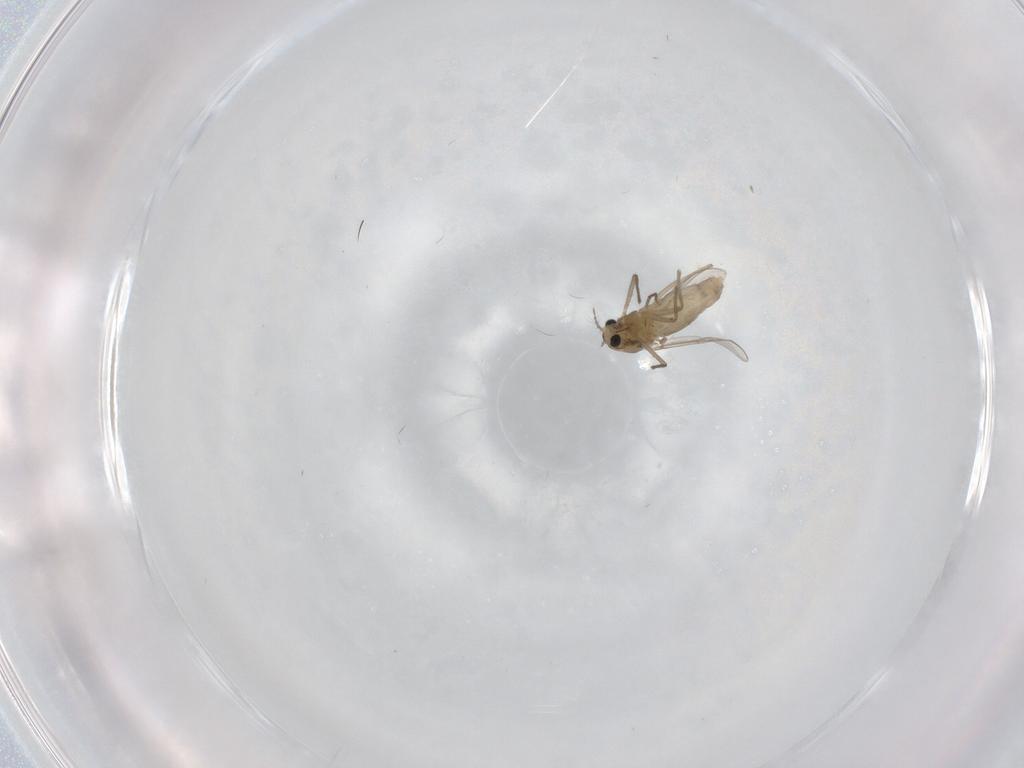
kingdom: Animalia
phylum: Arthropoda
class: Insecta
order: Diptera
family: Chironomidae
